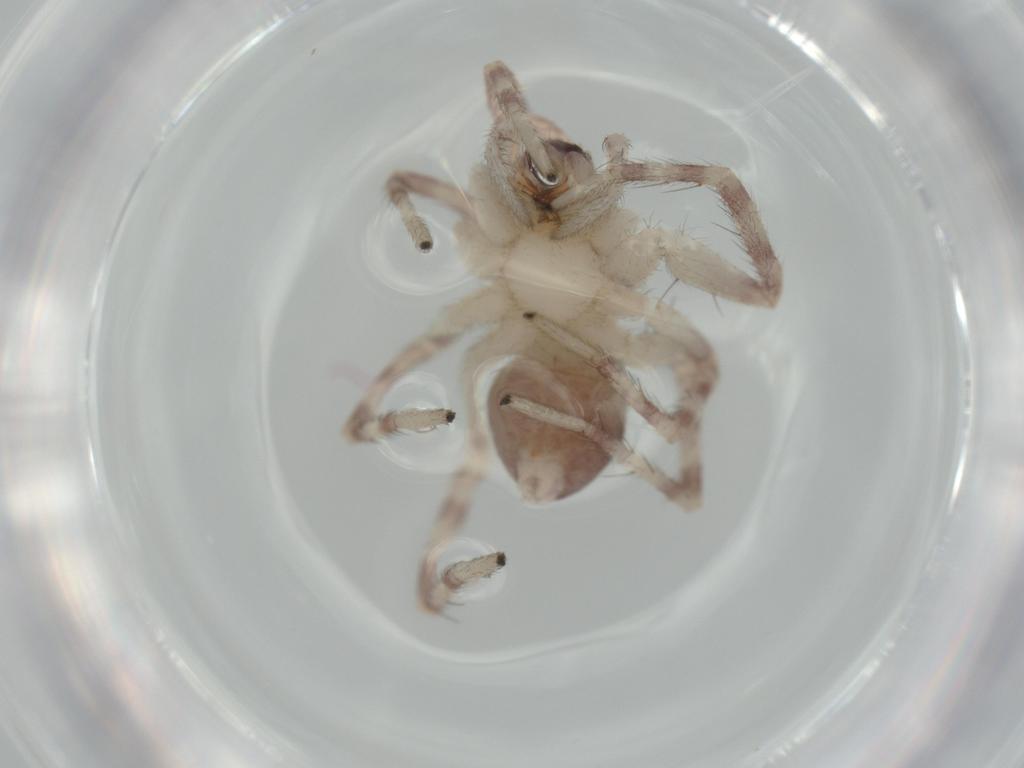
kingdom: Animalia
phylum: Arthropoda
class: Arachnida
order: Araneae
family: Corinnidae
